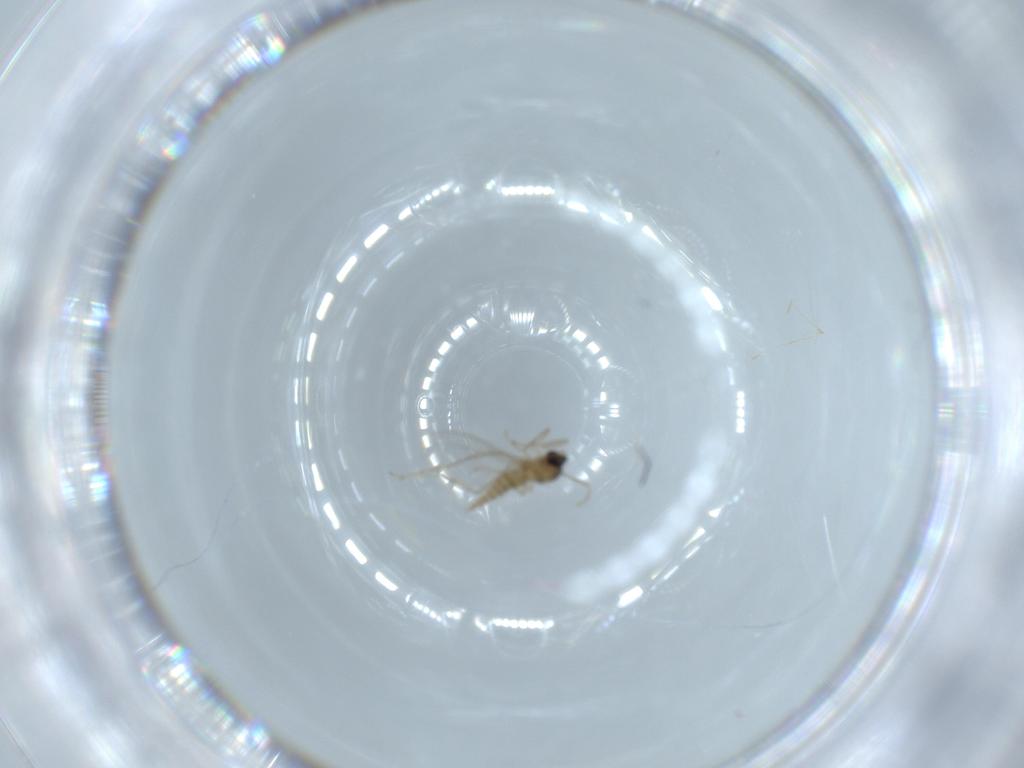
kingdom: Animalia
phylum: Arthropoda
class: Insecta
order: Diptera
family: Cecidomyiidae
